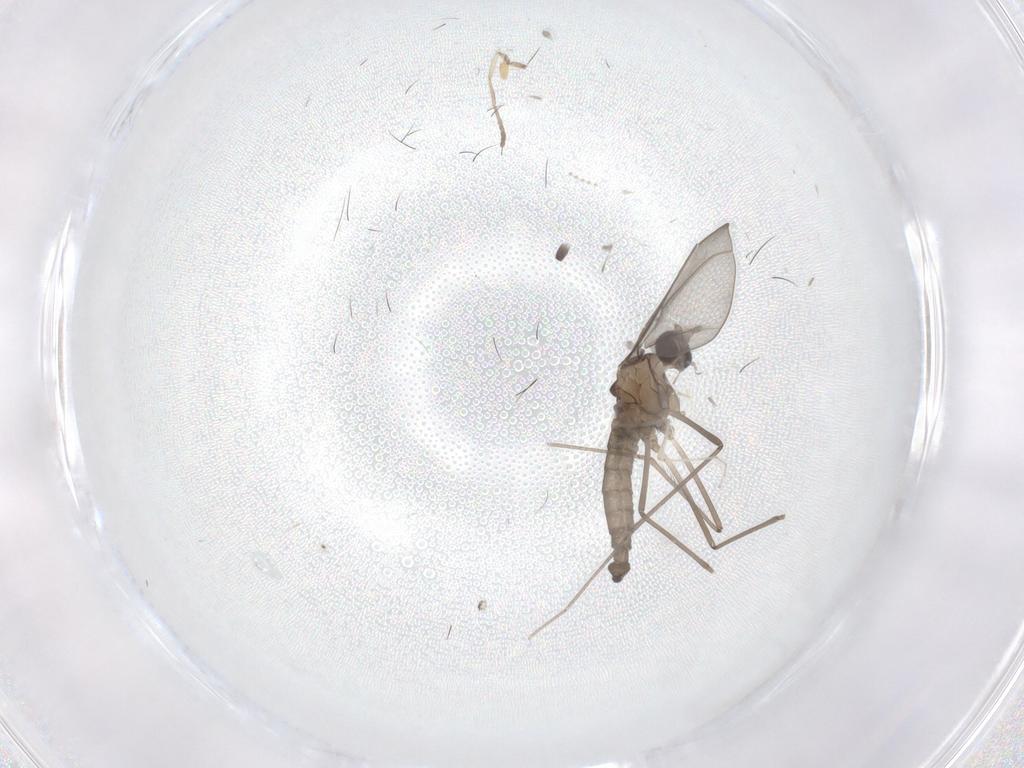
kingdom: Animalia
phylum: Arthropoda
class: Insecta
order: Diptera
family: Cecidomyiidae
